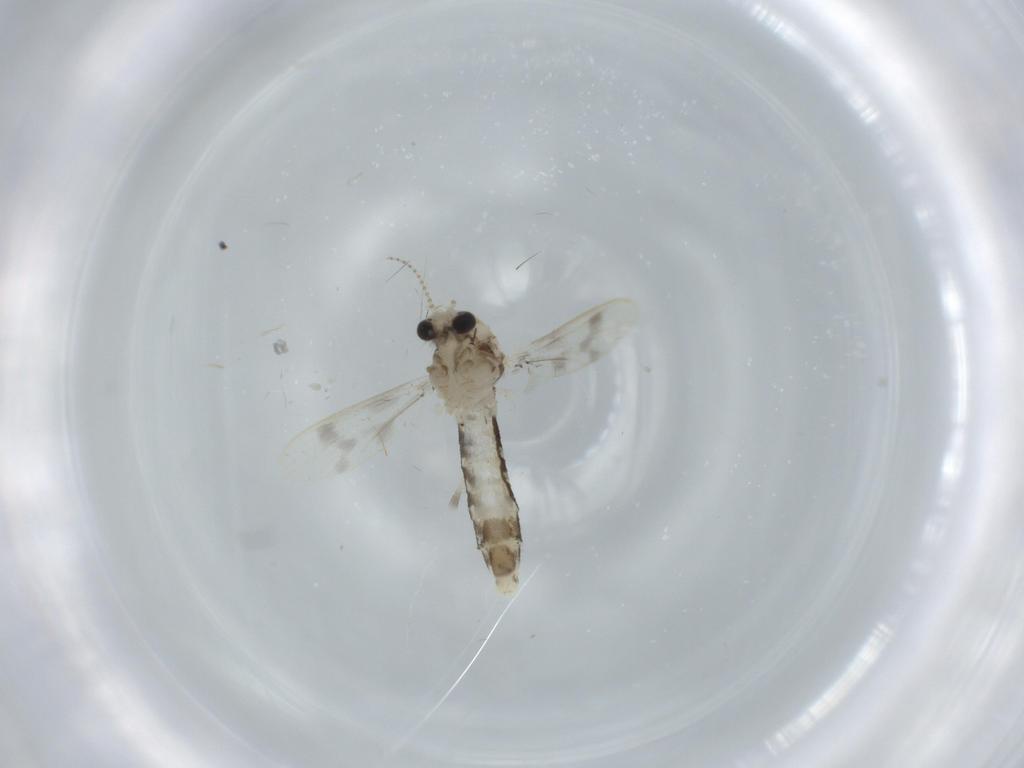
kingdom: Animalia
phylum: Arthropoda
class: Insecta
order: Diptera
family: Corethrellidae
